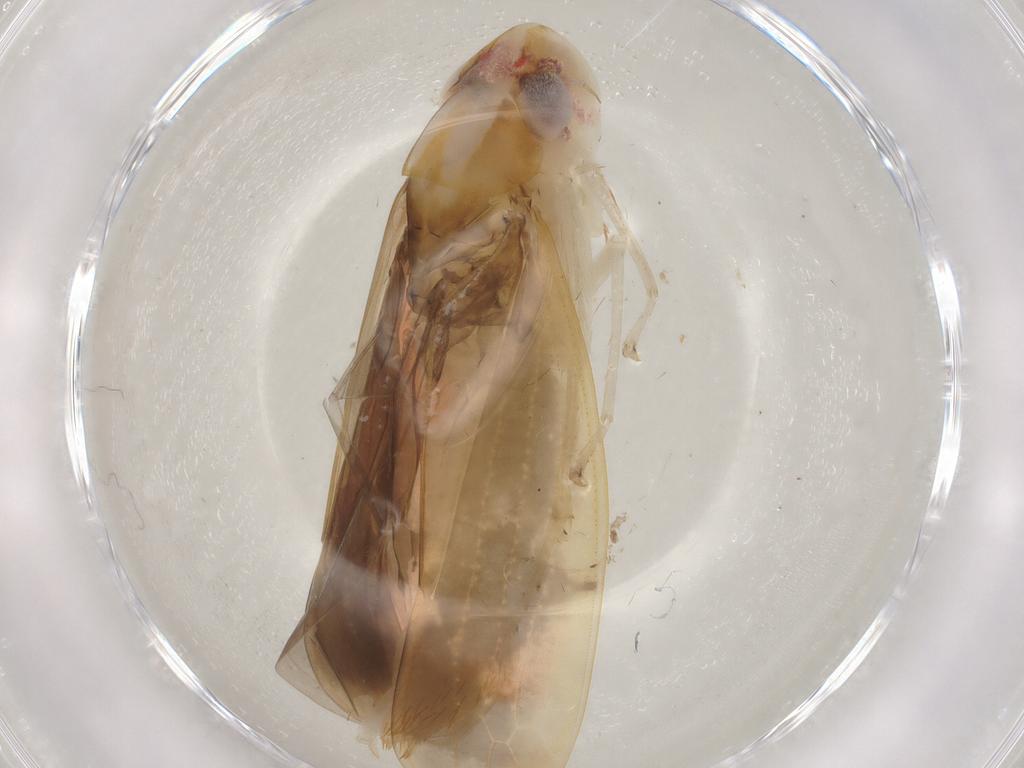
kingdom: Animalia
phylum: Arthropoda
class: Insecta
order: Hemiptera
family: Cicadellidae
